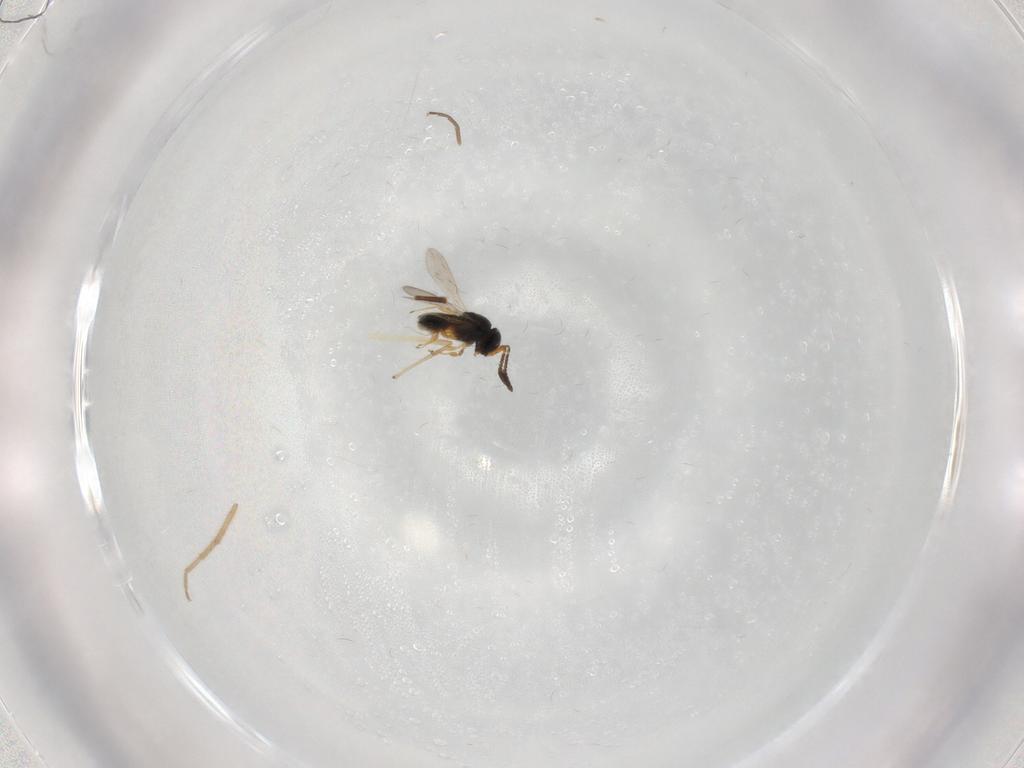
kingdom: Animalia
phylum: Arthropoda
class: Insecta
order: Hymenoptera
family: Scelionidae
